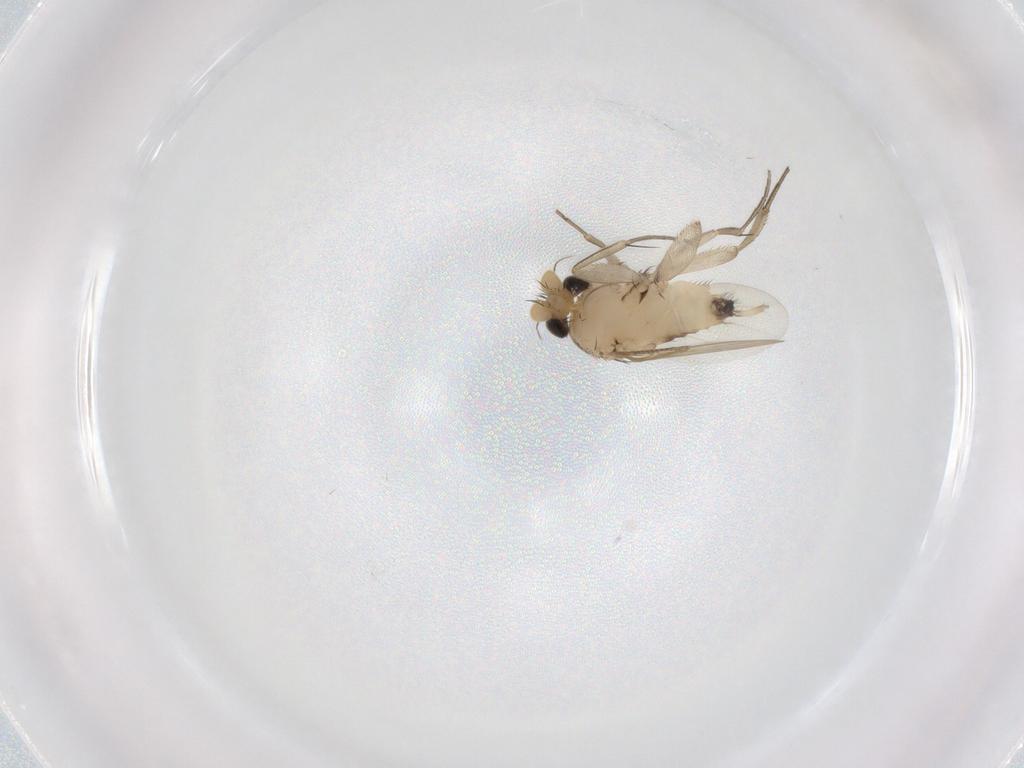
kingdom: Animalia
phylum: Arthropoda
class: Insecta
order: Diptera
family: Phoridae
